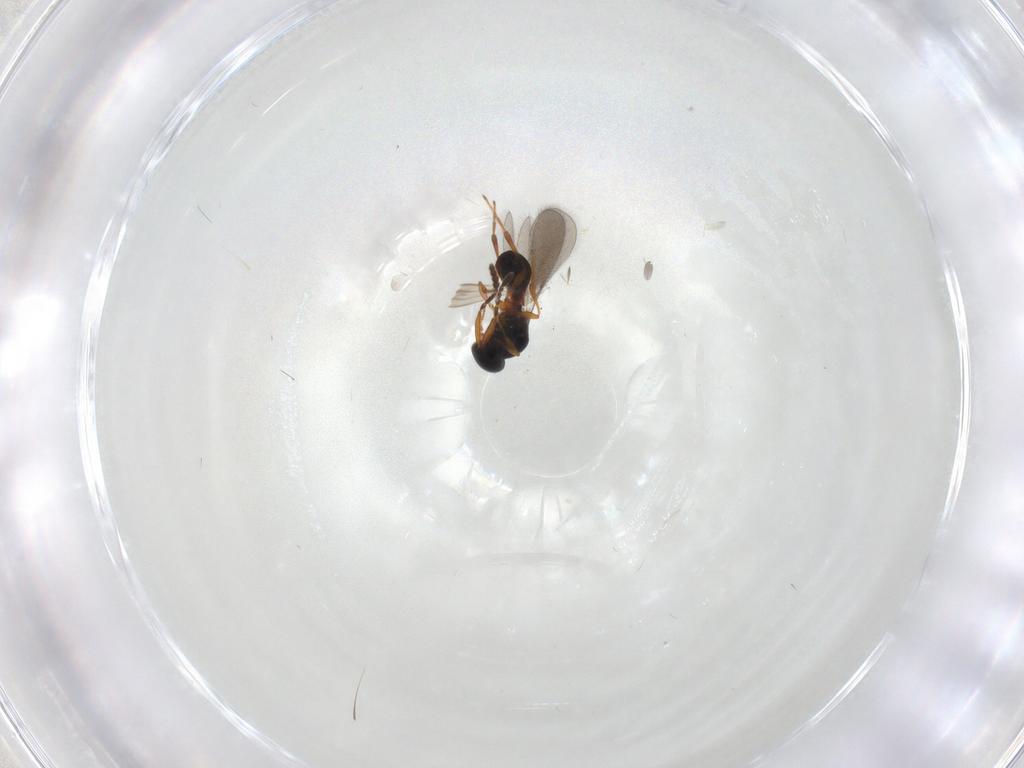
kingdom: Animalia
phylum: Arthropoda
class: Insecta
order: Hymenoptera
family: Platygastridae
